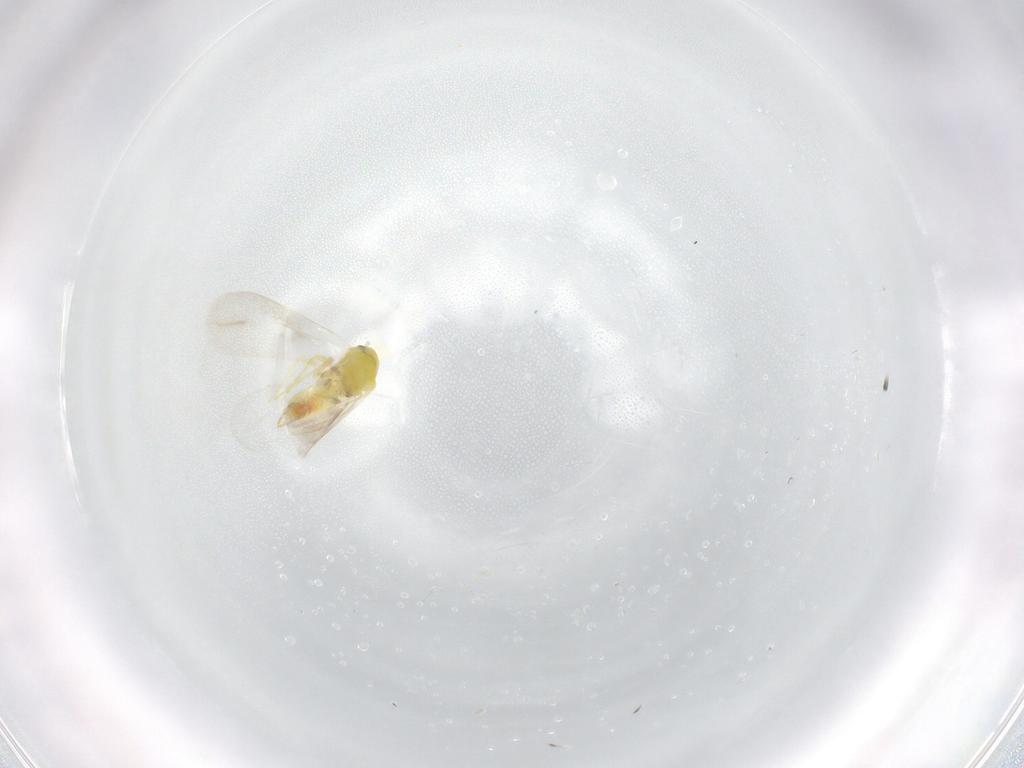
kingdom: Animalia
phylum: Arthropoda
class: Insecta
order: Hemiptera
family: Aleyrodidae
